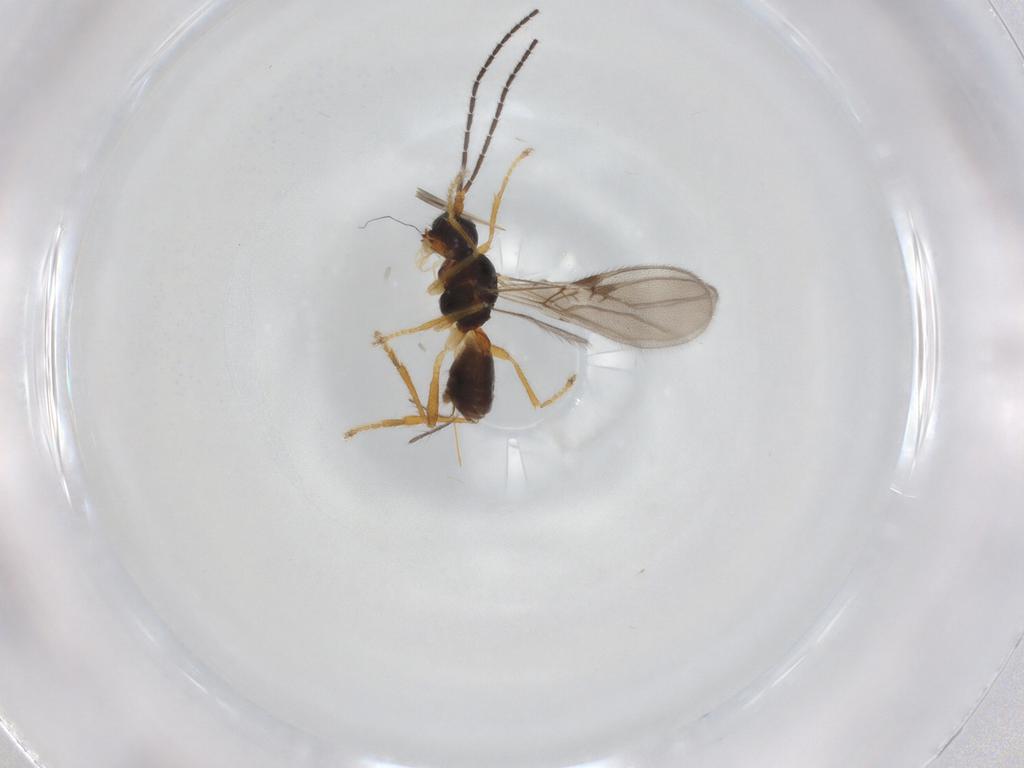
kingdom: Animalia
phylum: Arthropoda
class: Insecta
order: Hymenoptera
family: Braconidae
